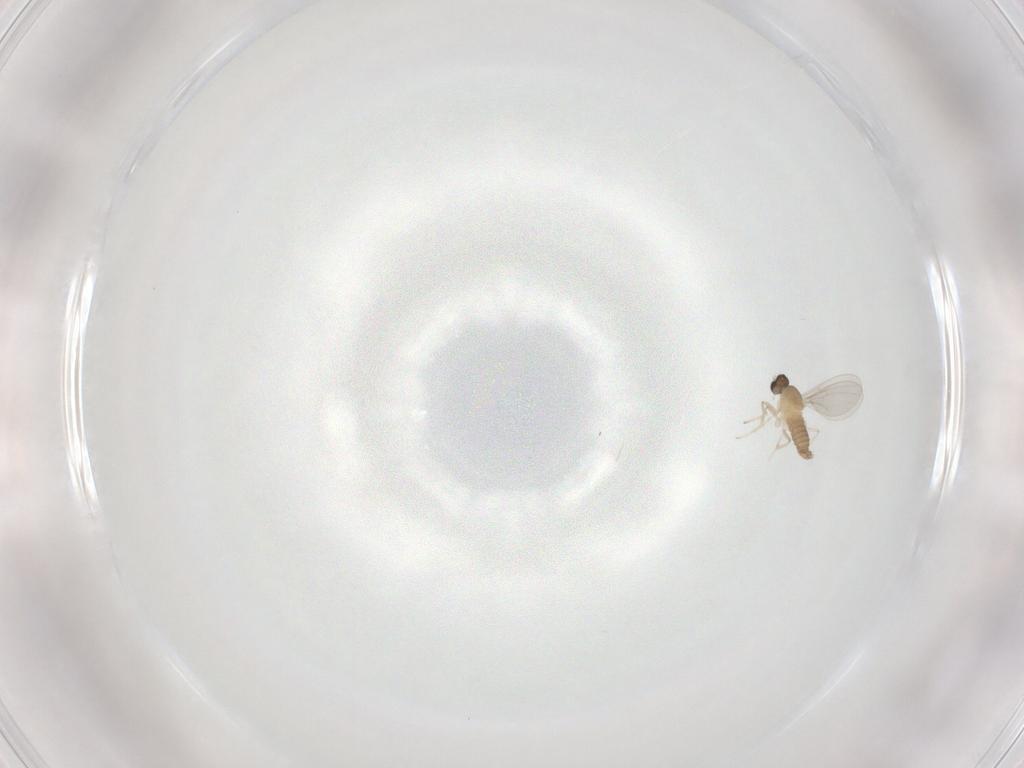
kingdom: Animalia
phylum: Arthropoda
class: Insecta
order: Diptera
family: Cecidomyiidae
